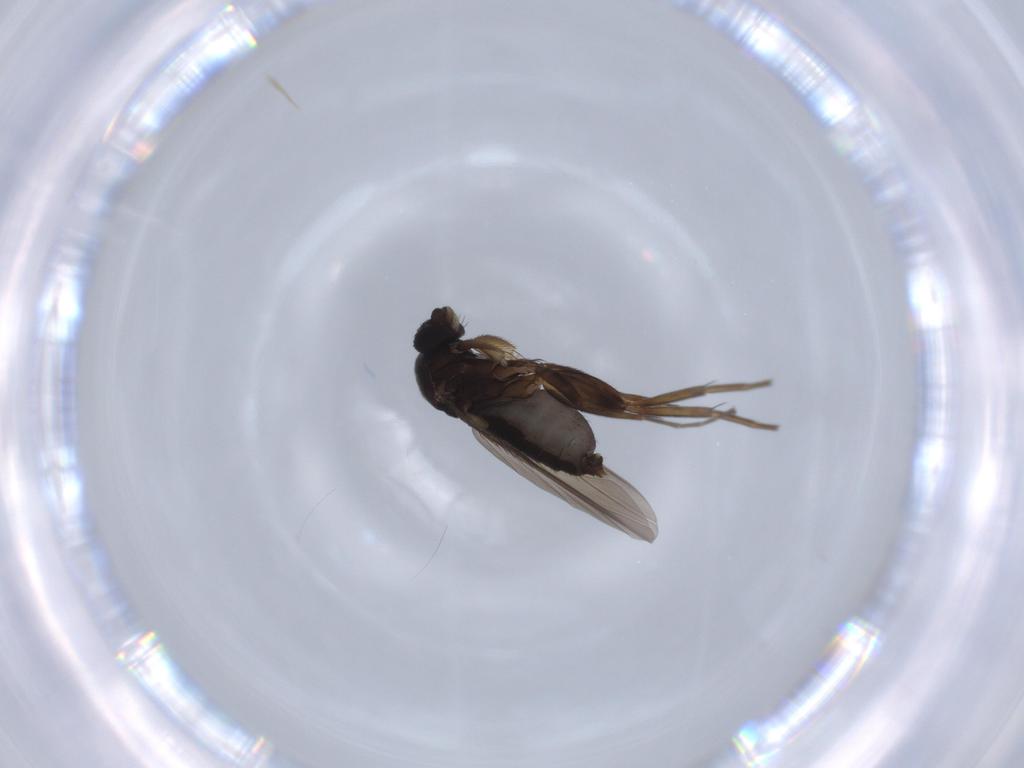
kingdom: Animalia
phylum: Arthropoda
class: Insecta
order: Diptera
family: Phoridae
